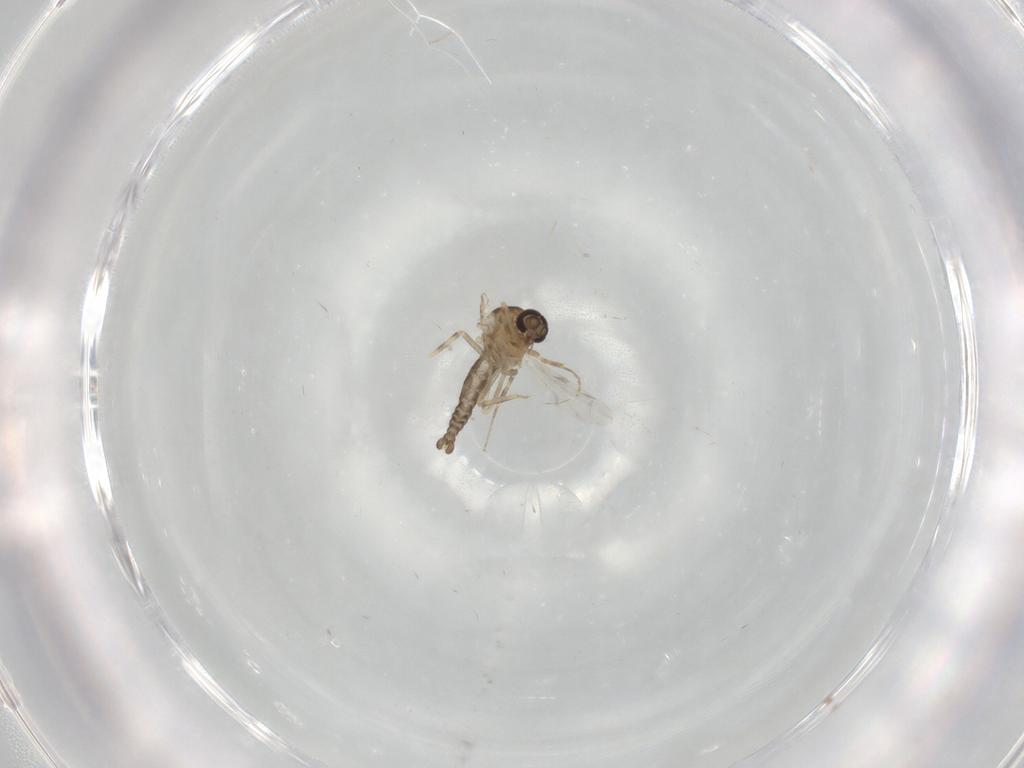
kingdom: Animalia
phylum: Arthropoda
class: Insecta
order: Diptera
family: Ceratopogonidae
